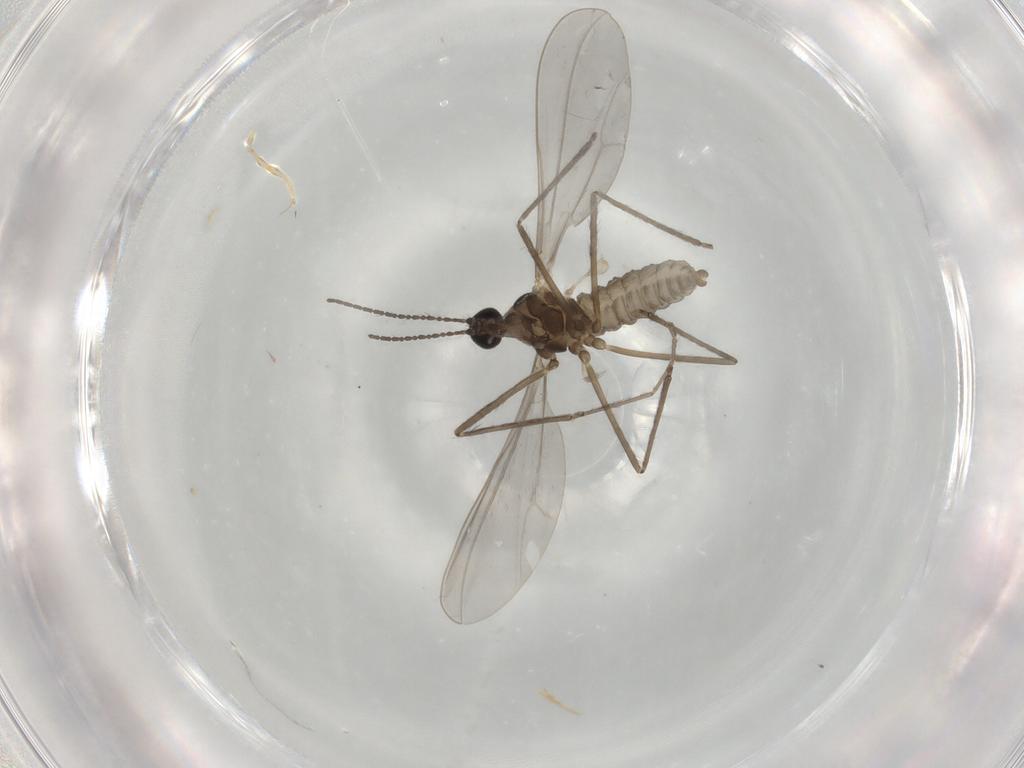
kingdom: Animalia
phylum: Arthropoda
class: Insecta
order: Diptera
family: Cecidomyiidae
